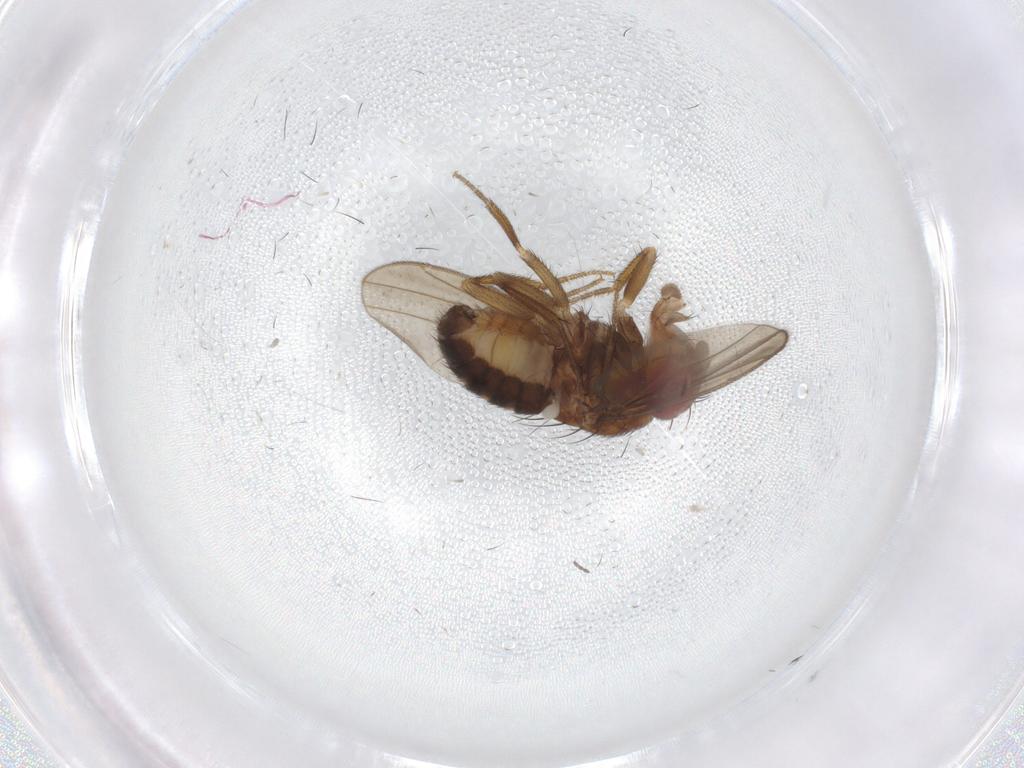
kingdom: Animalia
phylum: Arthropoda
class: Insecta
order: Diptera
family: Drosophilidae
